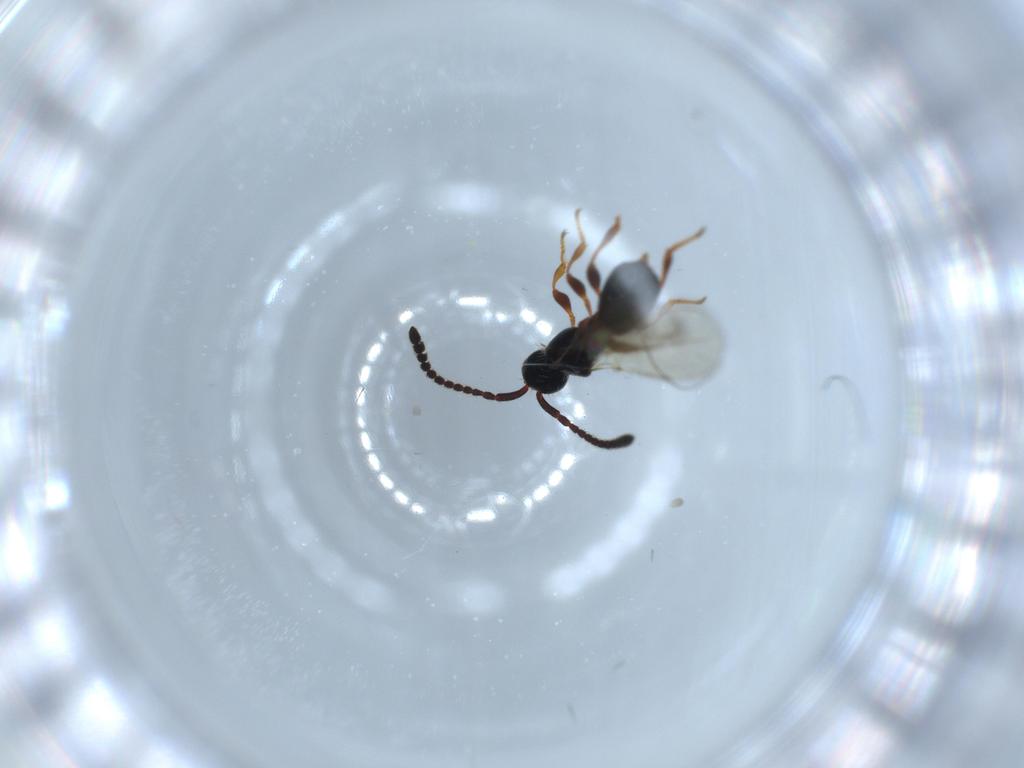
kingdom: Animalia
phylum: Arthropoda
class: Insecta
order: Hymenoptera
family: Diapriidae
